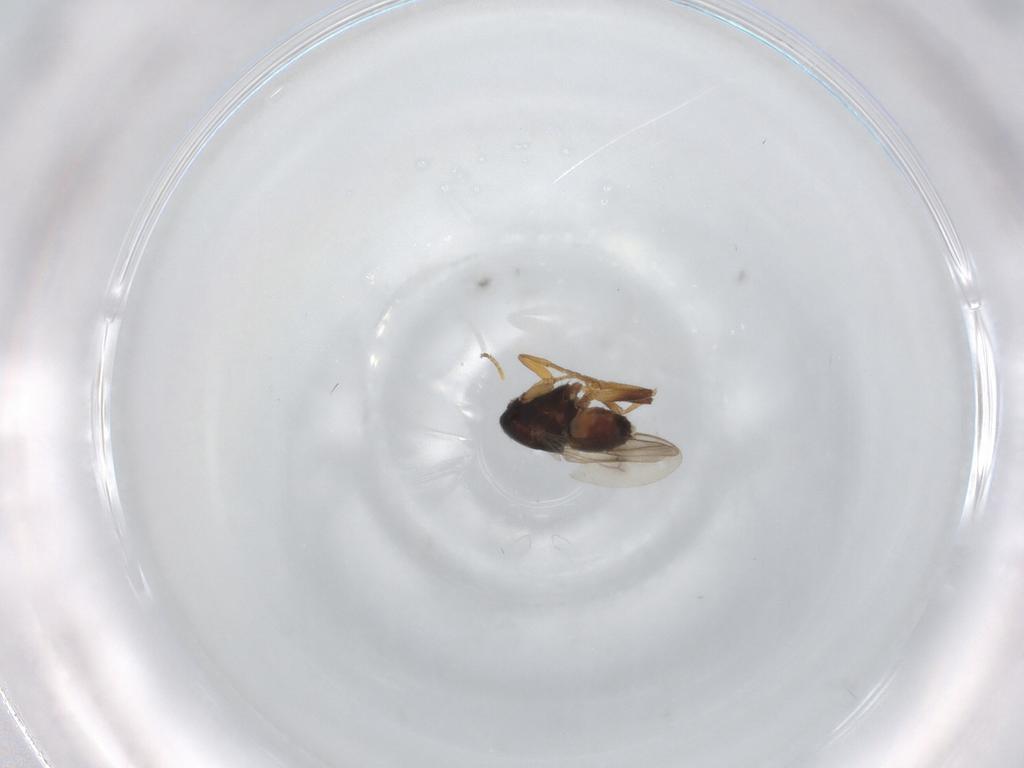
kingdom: Animalia
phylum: Arthropoda
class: Insecta
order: Diptera
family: Sphaeroceridae
